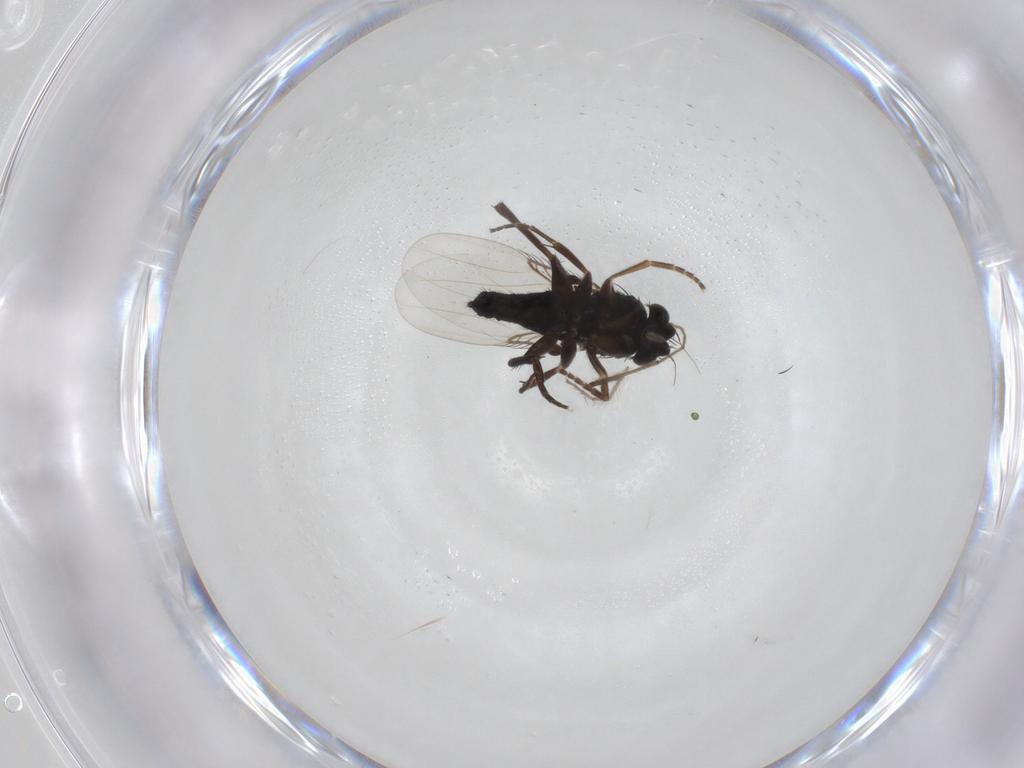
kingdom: Animalia
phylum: Arthropoda
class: Insecta
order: Diptera
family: Phoridae
